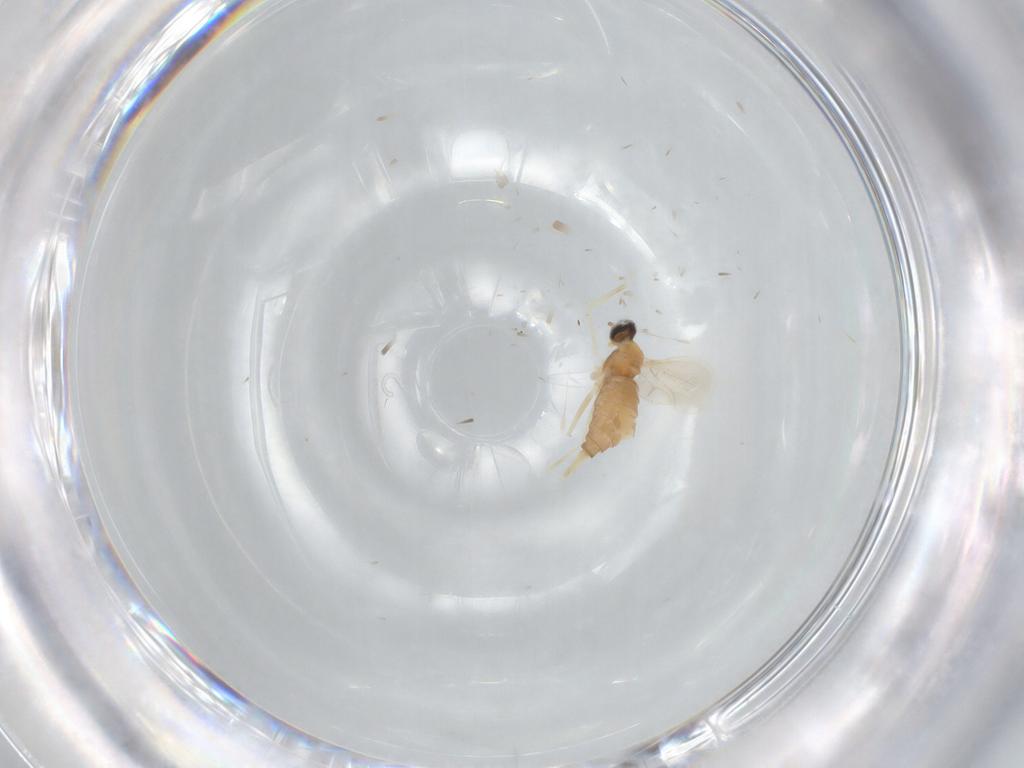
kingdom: Animalia
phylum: Arthropoda
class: Insecta
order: Diptera
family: Cecidomyiidae
